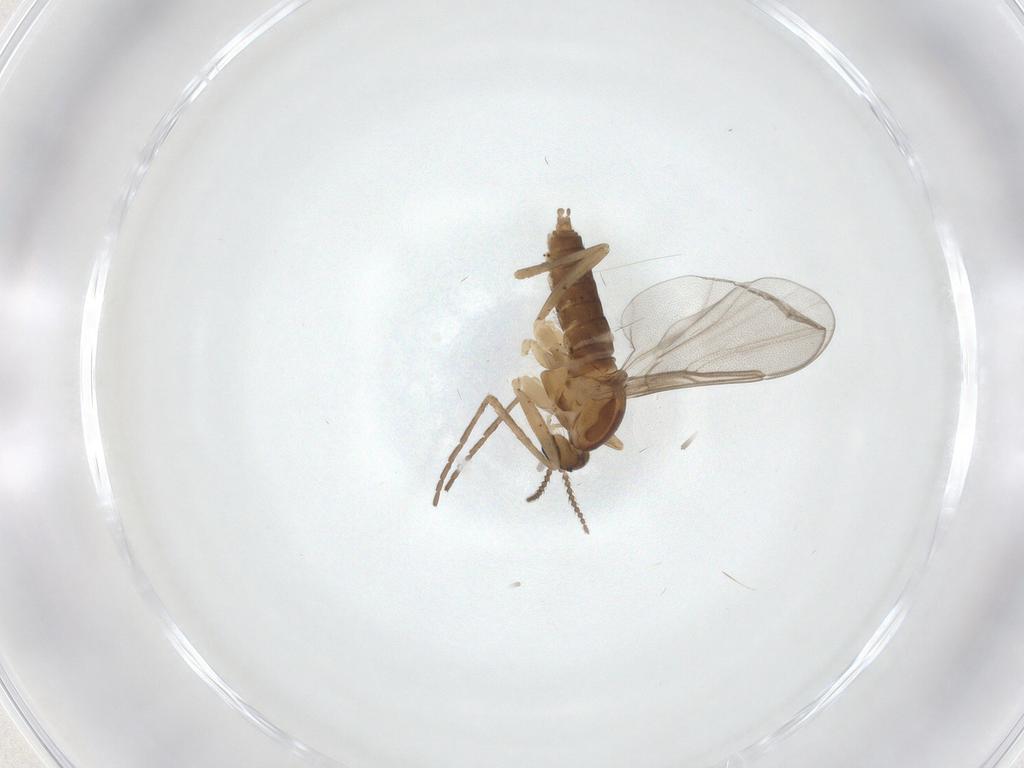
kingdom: Animalia
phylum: Arthropoda
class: Insecta
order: Diptera
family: Cecidomyiidae
